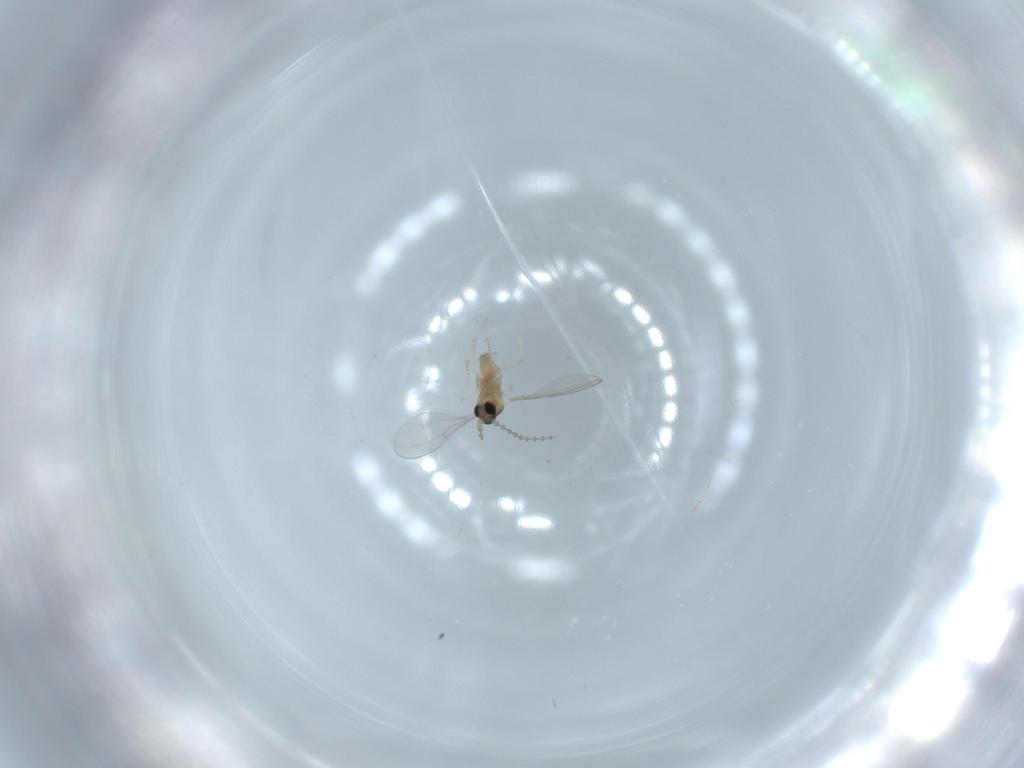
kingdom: Animalia
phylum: Arthropoda
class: Insecta
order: Diptera
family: Cecidomyiidae
